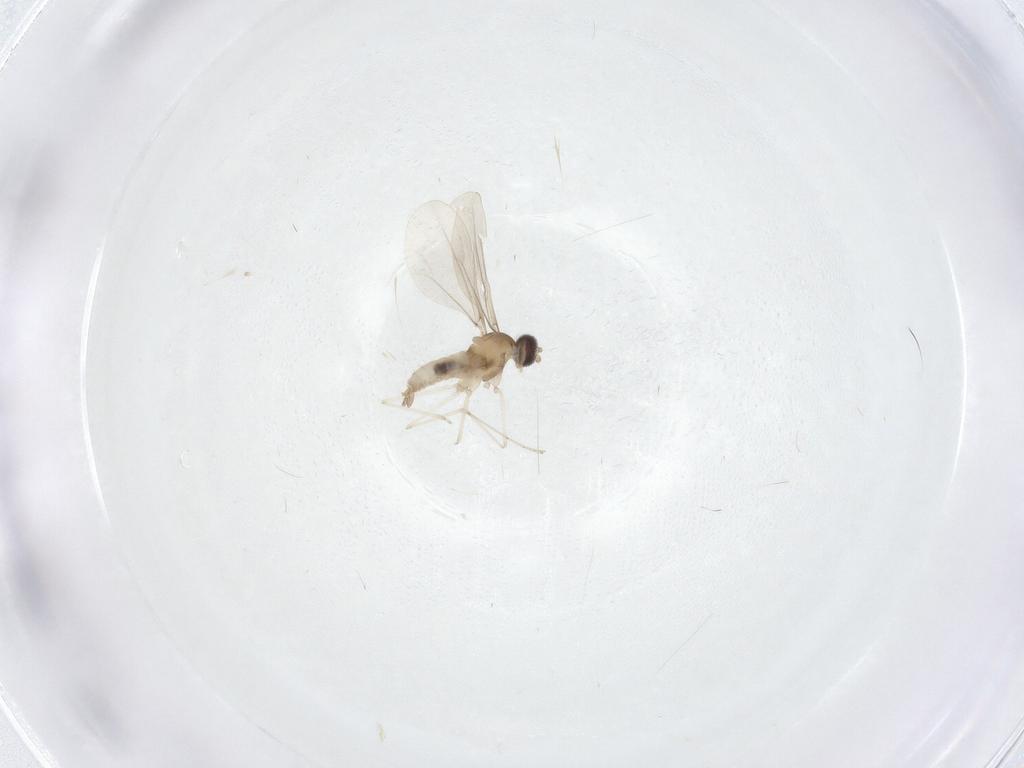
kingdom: Animalia
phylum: Arthropoda
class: Insecta
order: Diptera
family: Cecidomyiidae
